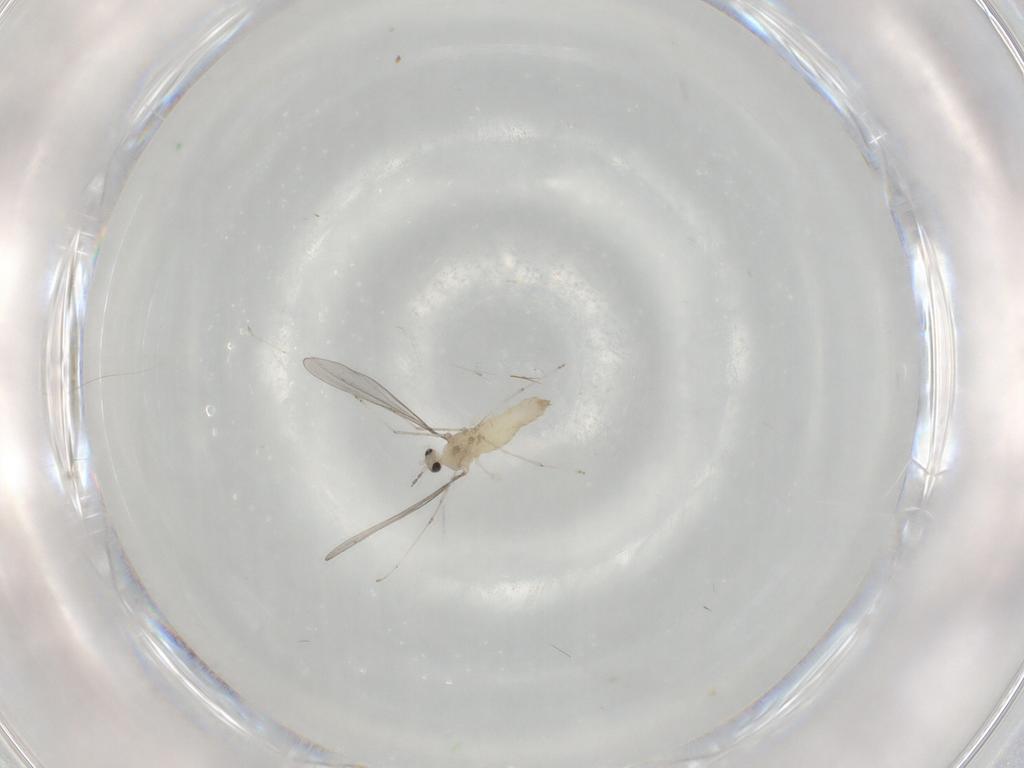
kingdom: Animalia
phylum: Arthropoda
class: Insecta
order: Diptera
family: Cecidomyiidae
